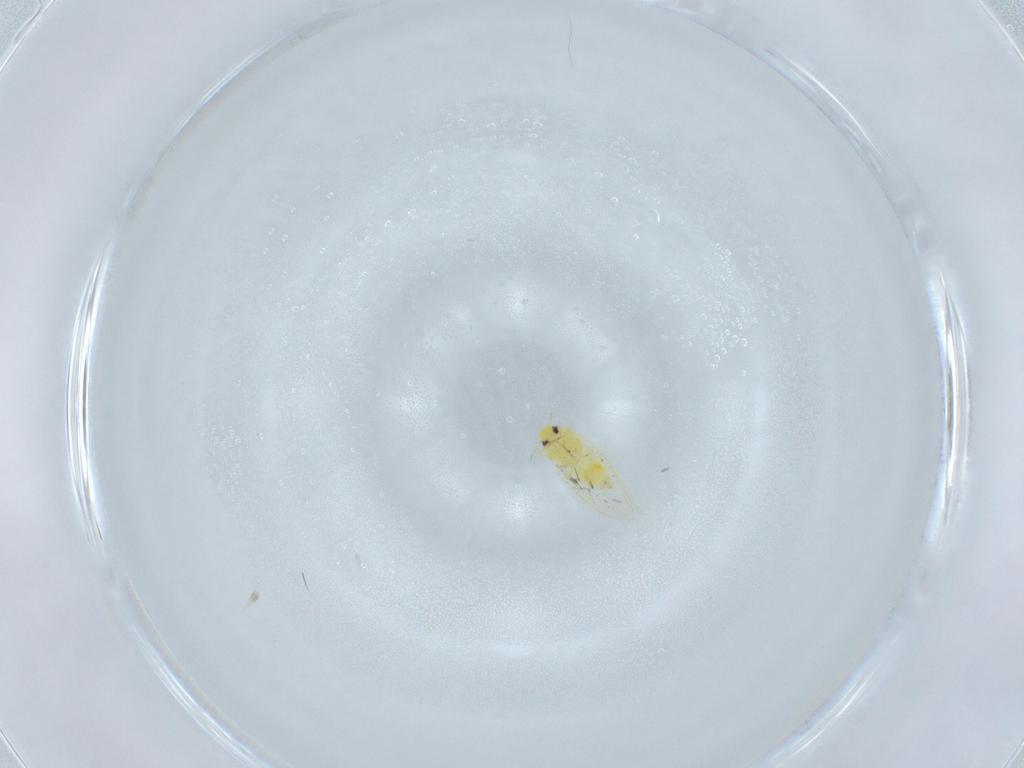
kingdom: Animalia
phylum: Arthropoda
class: Insecta
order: Hemiptera
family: Aleyrodidae
